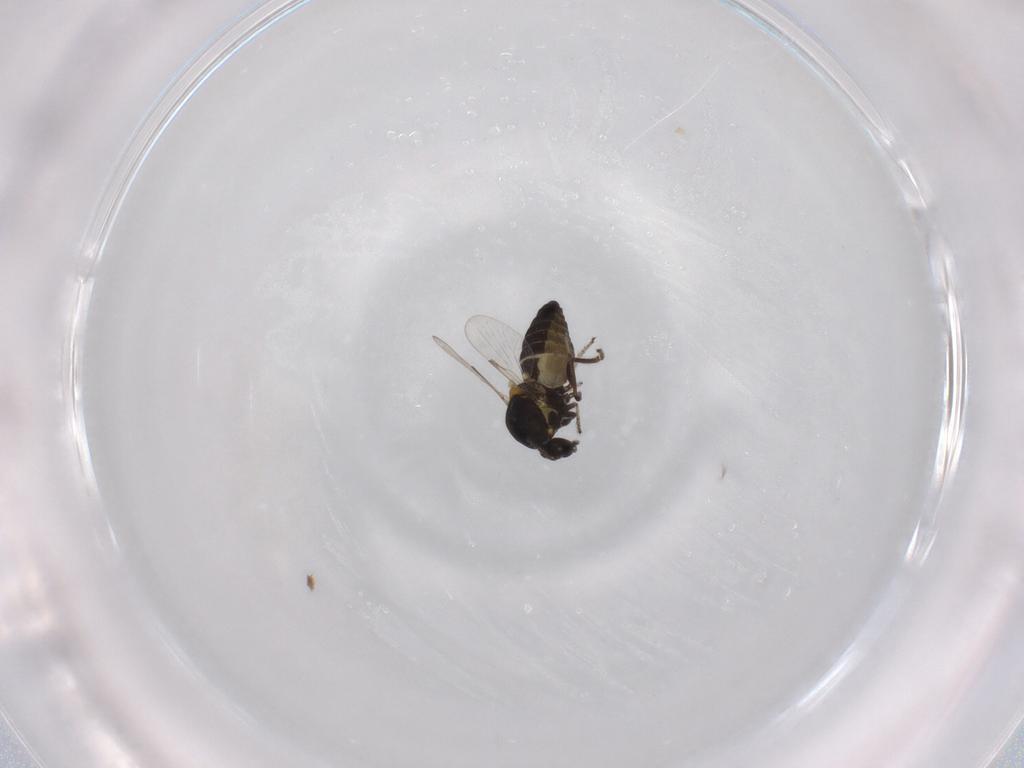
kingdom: Animalia
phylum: Arthropoda
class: Insecta
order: Diptera
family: Ceratopogonidae
